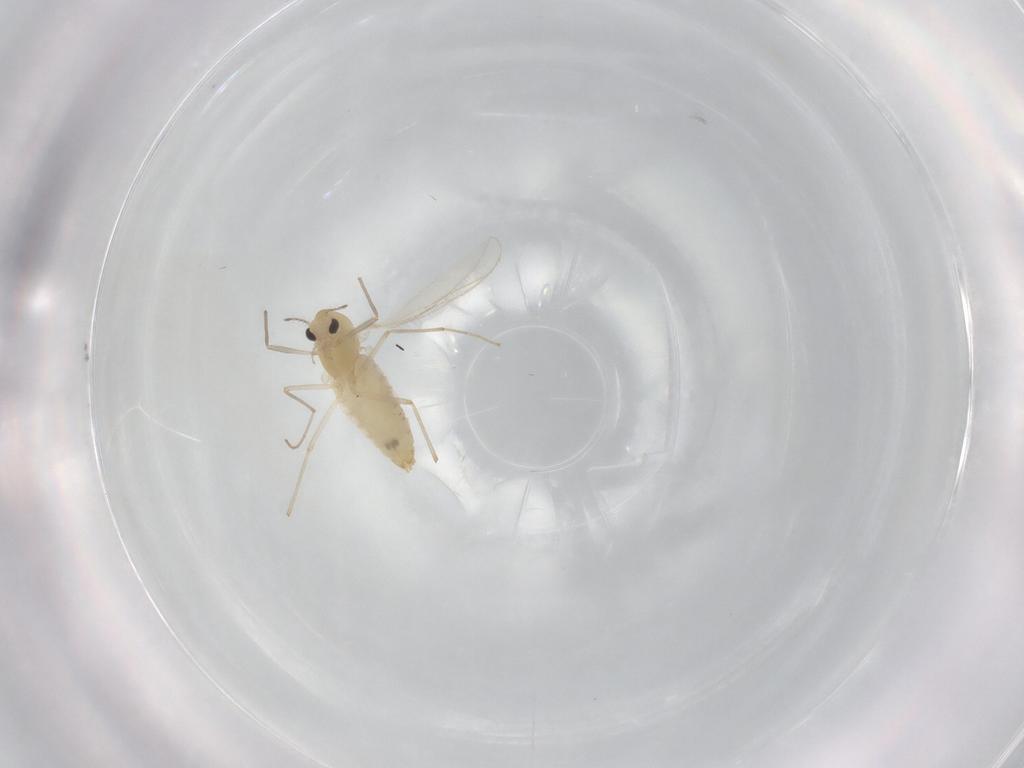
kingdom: Animalia
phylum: Arthropoda
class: Insecta
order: Diptera
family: Chironomidae
